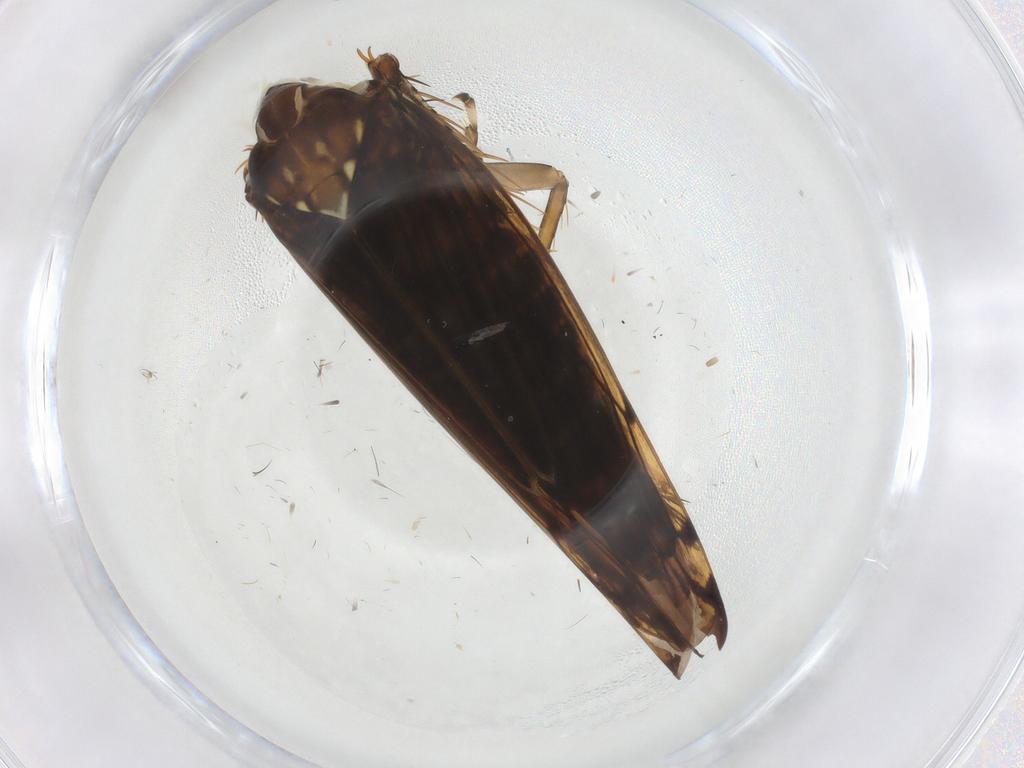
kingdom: Animalia
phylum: Arthropoda
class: Insecta
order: Hemiptera
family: Cicadellidae
